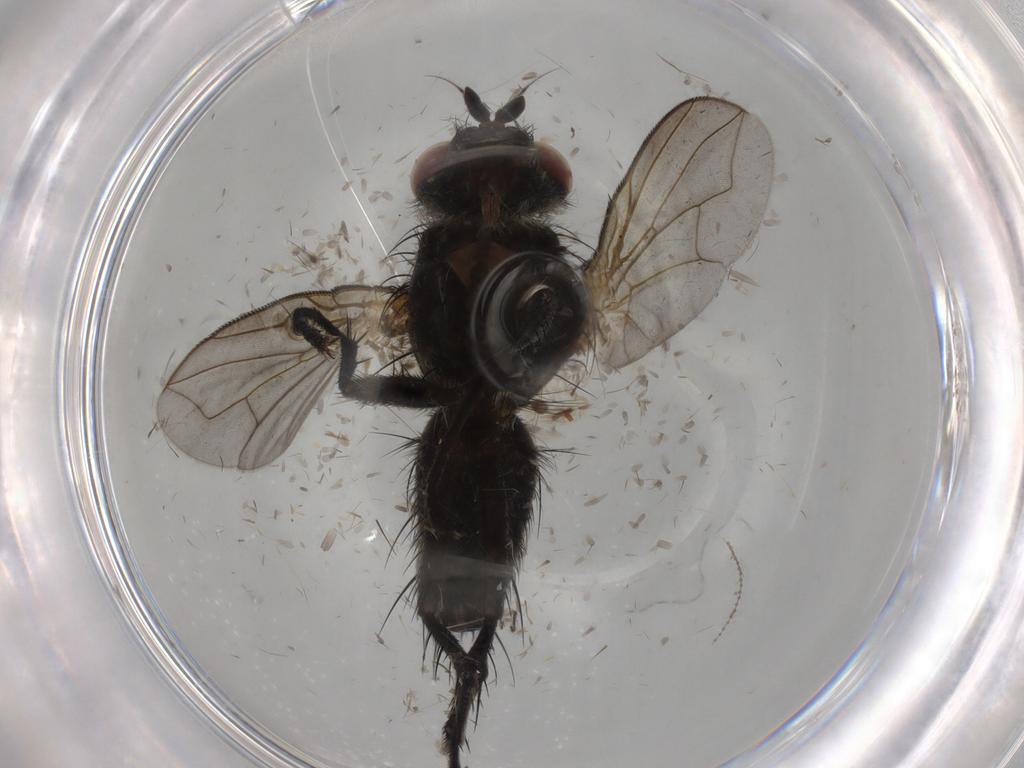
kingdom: Animalia
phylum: Arthropoda
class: Insecta
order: Diptera
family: Tachinidae
